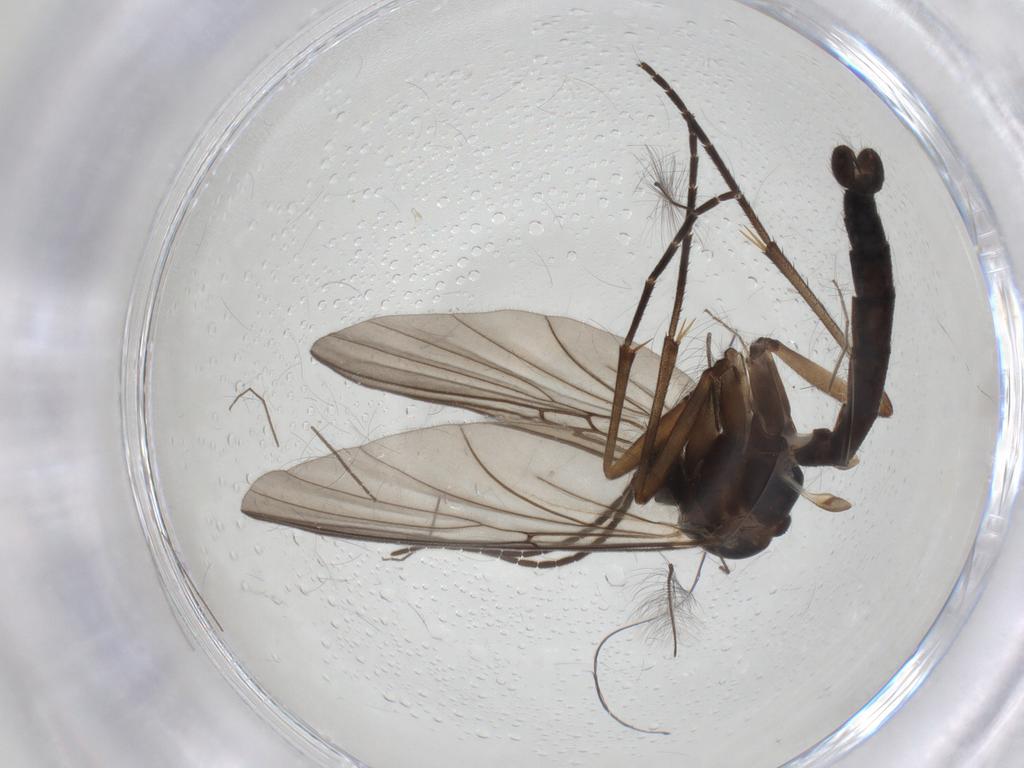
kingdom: Animalia
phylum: Arthropoda
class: Insecta
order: Diptera
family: Mycetophilidae
